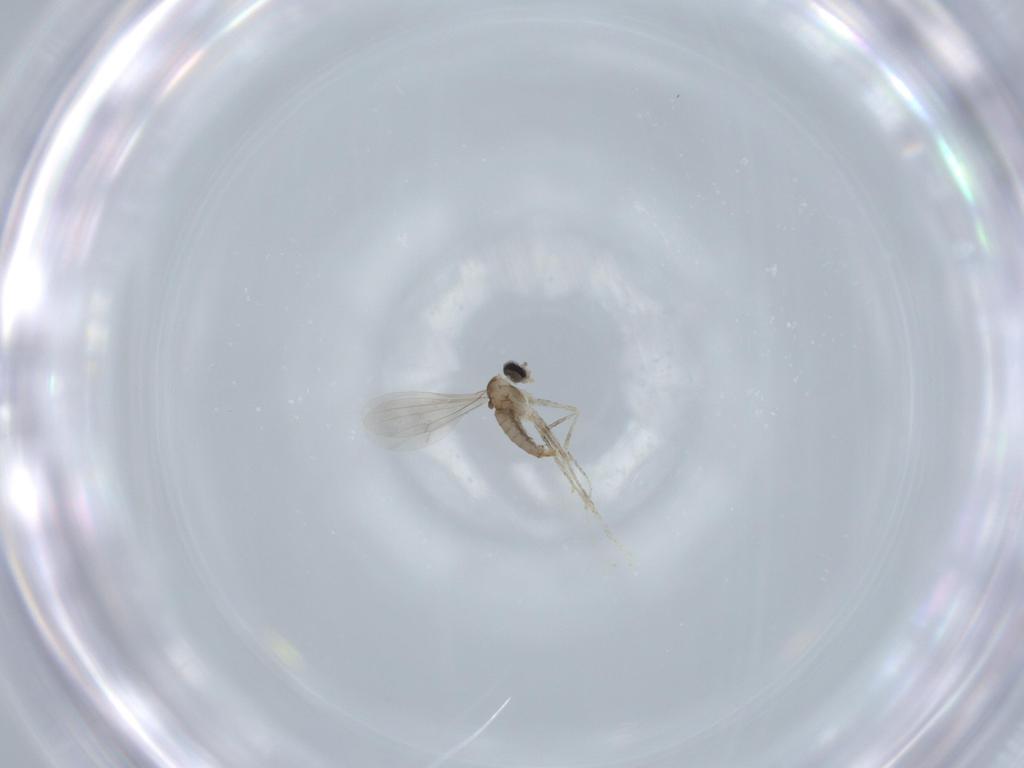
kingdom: Animalia
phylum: Arthropoda
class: Insecta
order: Diptera
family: Cecidomyiidae
